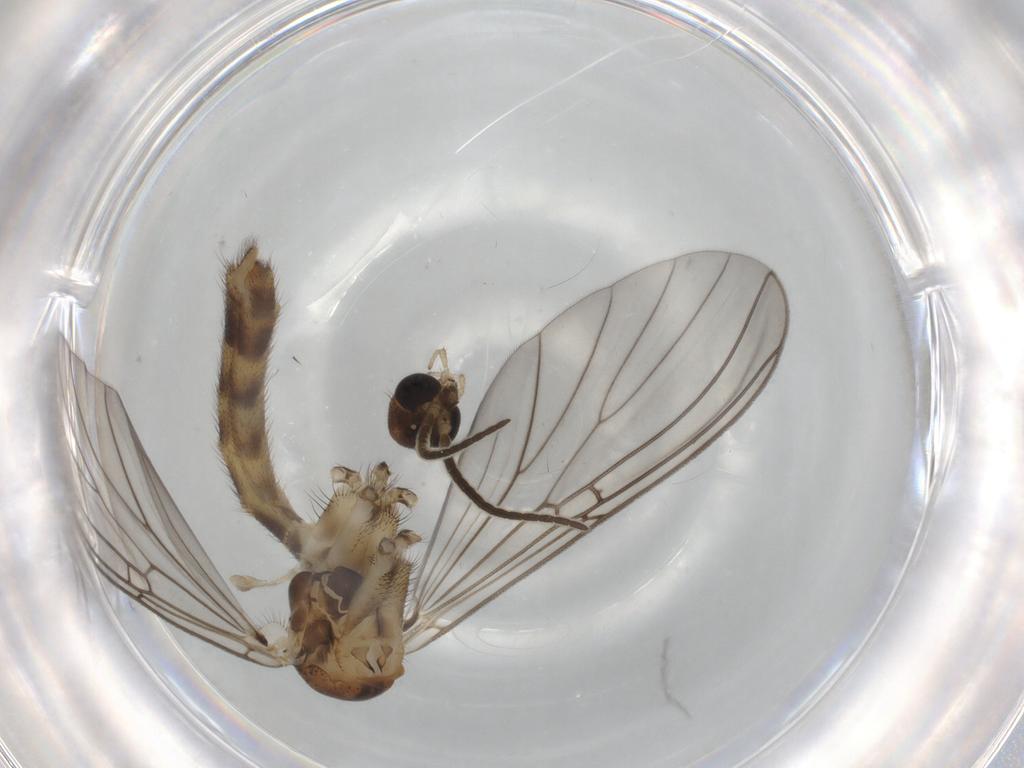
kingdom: Animalia
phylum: Arthropoda
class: Insecta
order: Diptera
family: Mycetophilidae
